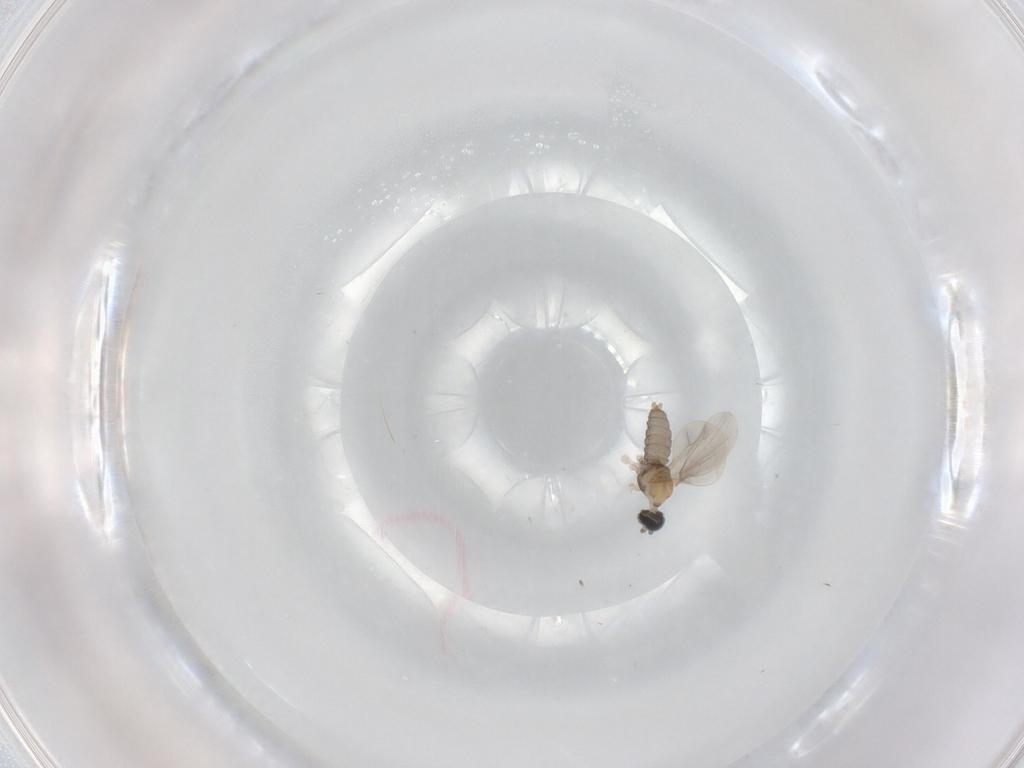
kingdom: Animalia
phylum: Arthropoda
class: Insecta
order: Diptera
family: Cecidomyiidae
